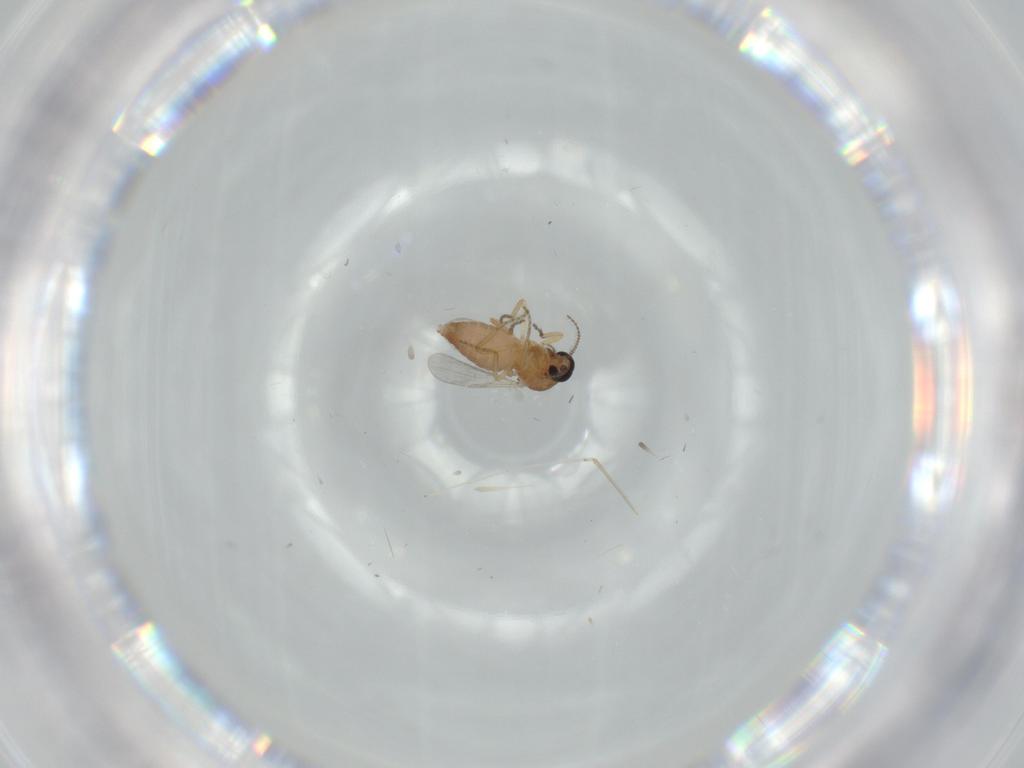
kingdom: Animalia
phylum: Arthropoda
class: Insecta
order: Diptera
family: Ceratopogonidae
